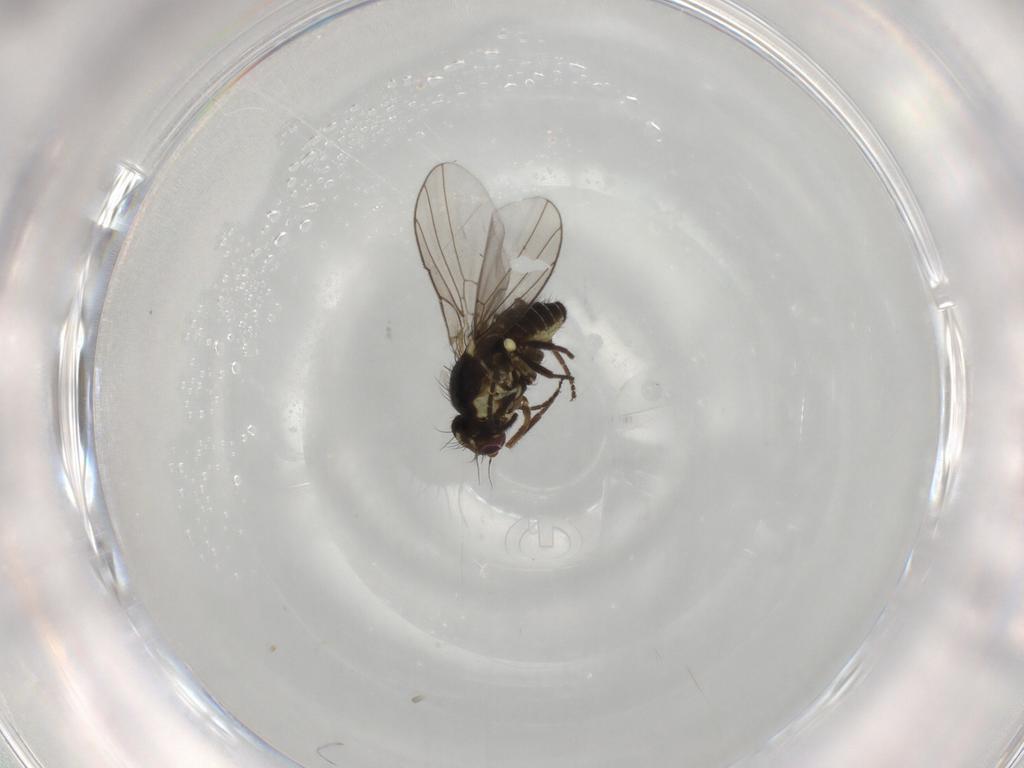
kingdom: Animalia
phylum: Arthropoda
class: Insecta
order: Diptera
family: Agromyzidae
